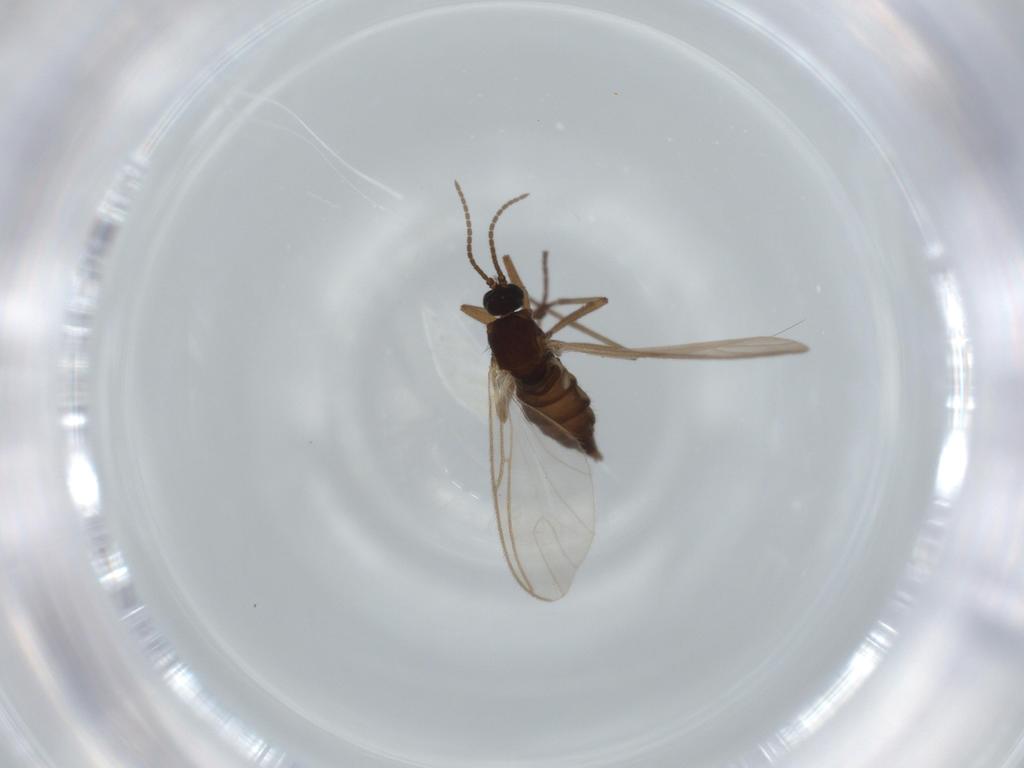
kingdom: Animalia
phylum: Arthropoda
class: Insecta
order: Diptera
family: Sciaridae
